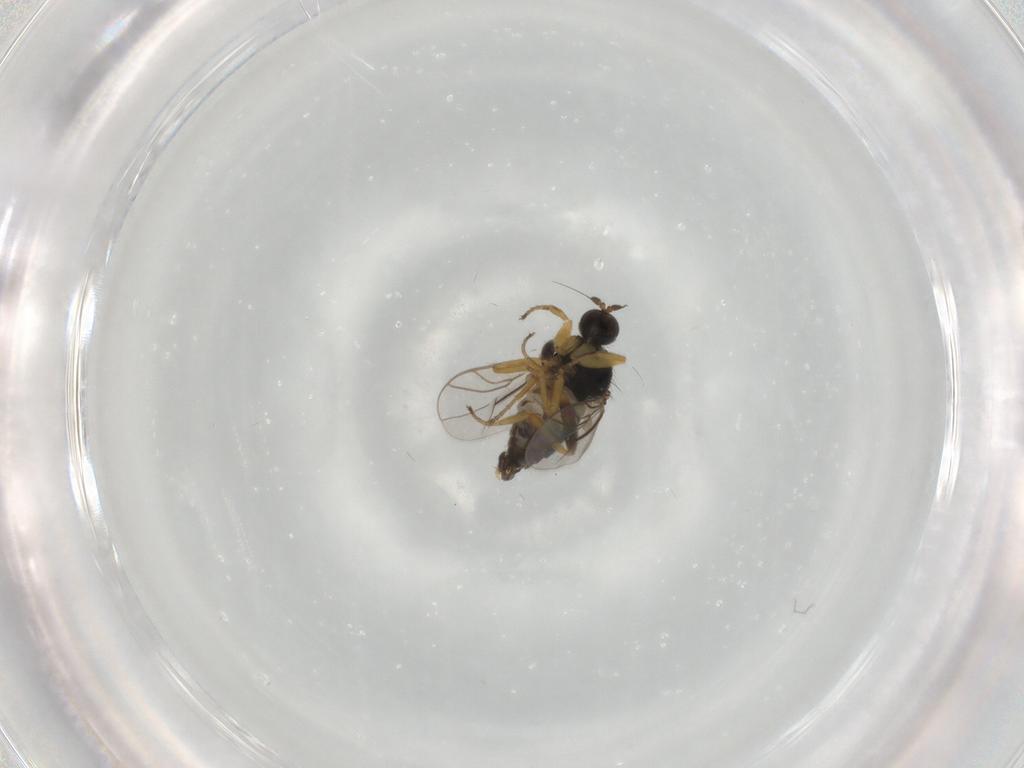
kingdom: Animalia
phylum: Arthropoda
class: Insecta
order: Diptera
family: Hybotidae
